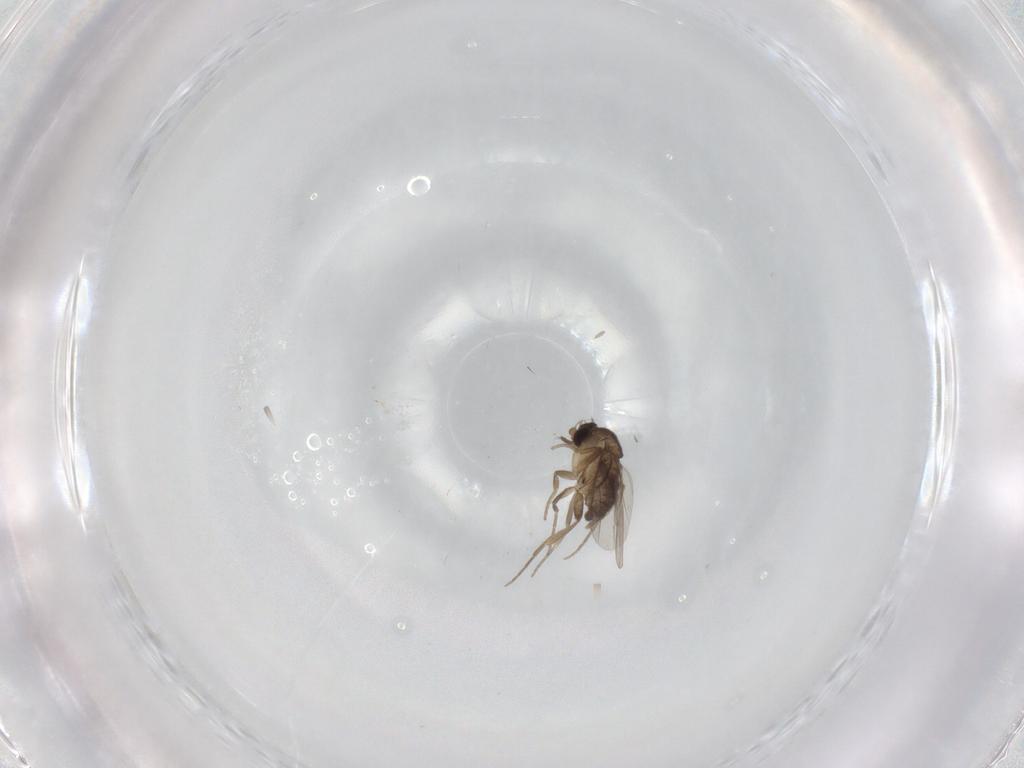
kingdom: Animalia
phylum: Arthropoda
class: Insecta
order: Diptera
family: Phoridae
